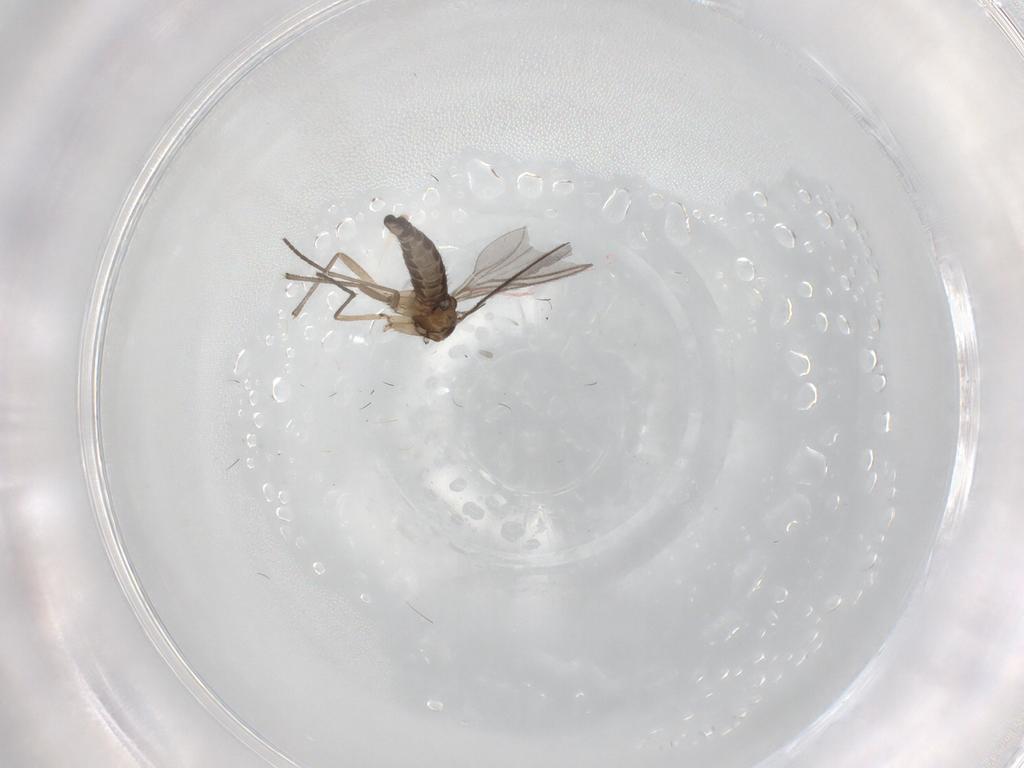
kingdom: Animalia
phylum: Arthropoda
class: Insecta
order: Diptera
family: Sciaridae
